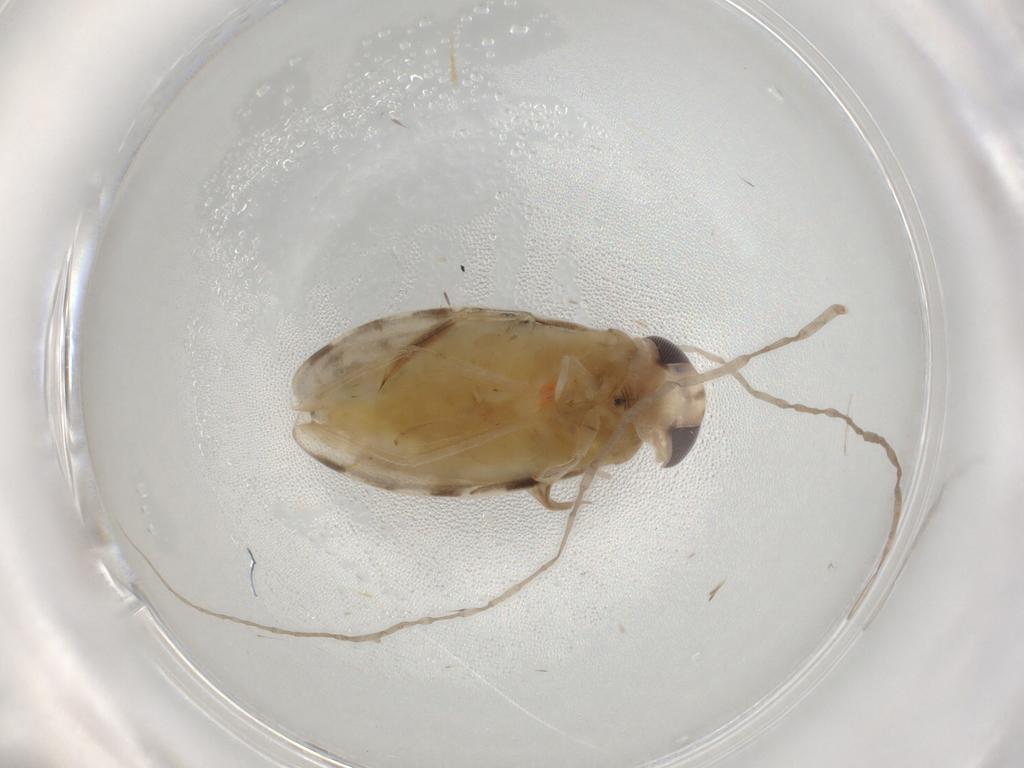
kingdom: Animalia
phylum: Arthropoda
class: Insecta
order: Hemiptera
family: Corixidae
